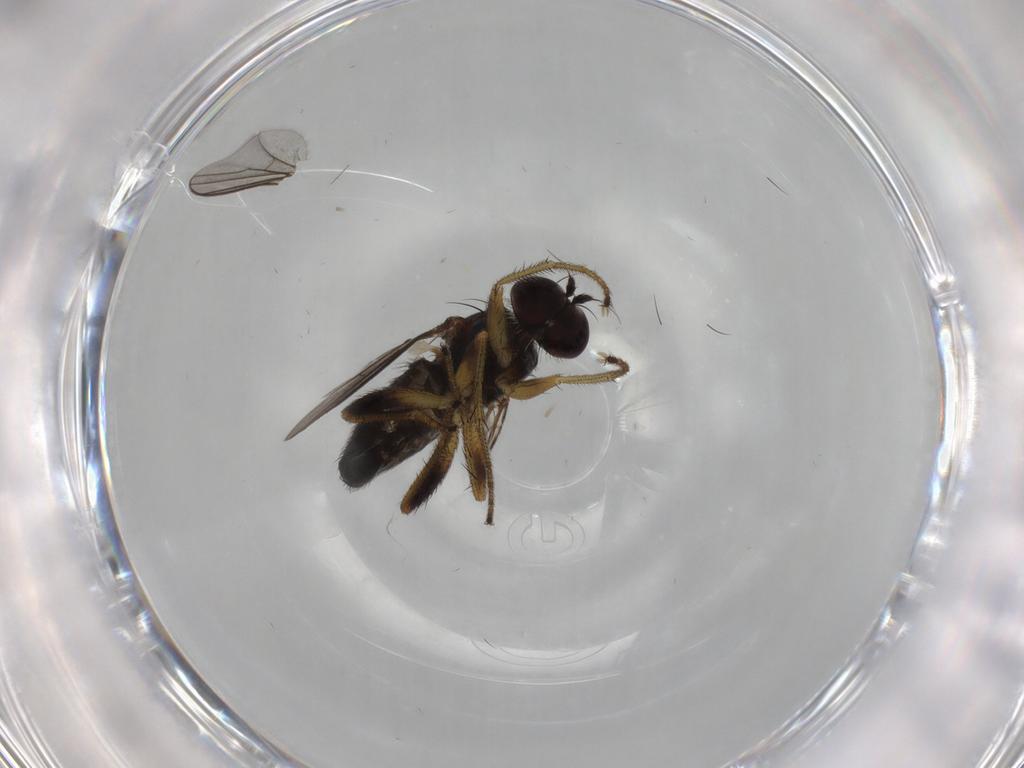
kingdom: Animalia
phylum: Arthropoda
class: Insecta
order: Diptera
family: Dolichopodidae
